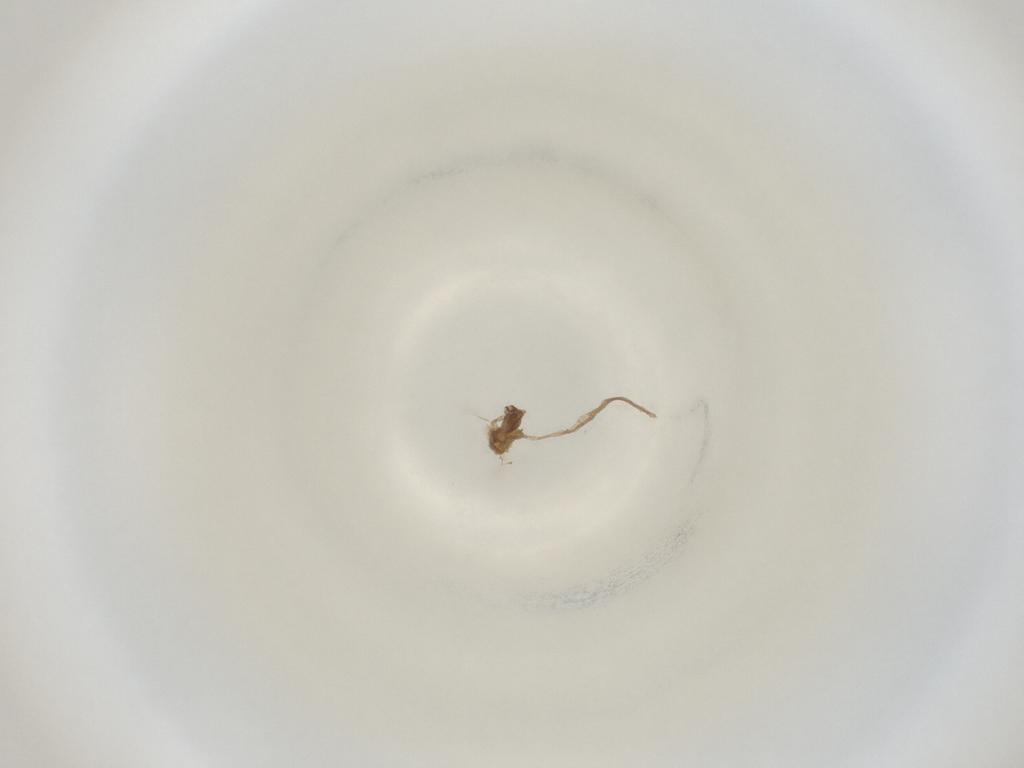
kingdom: Animalia
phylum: Arthropoda
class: Insecta
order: Diptera
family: Cecidomyiidae
